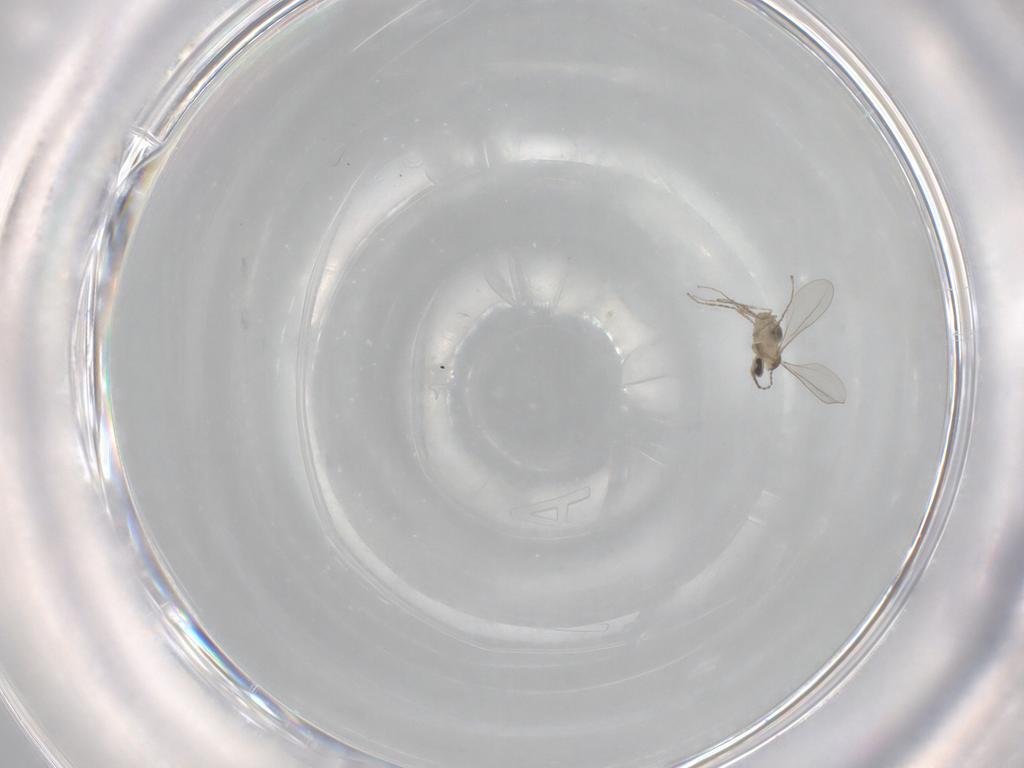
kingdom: Animalia
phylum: Arthropoda
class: Insecta
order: Diptera
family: Cecidomyiidae
